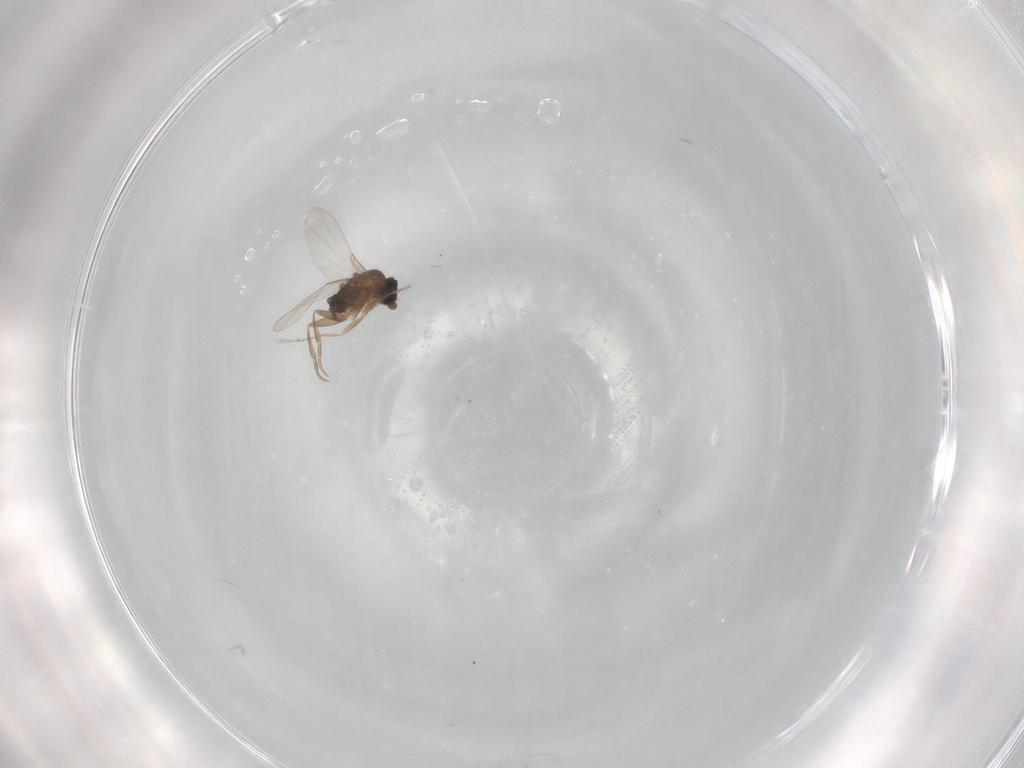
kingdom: Animalia
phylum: Arthropoda
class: Insecta
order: Diptera
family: Phoridae
